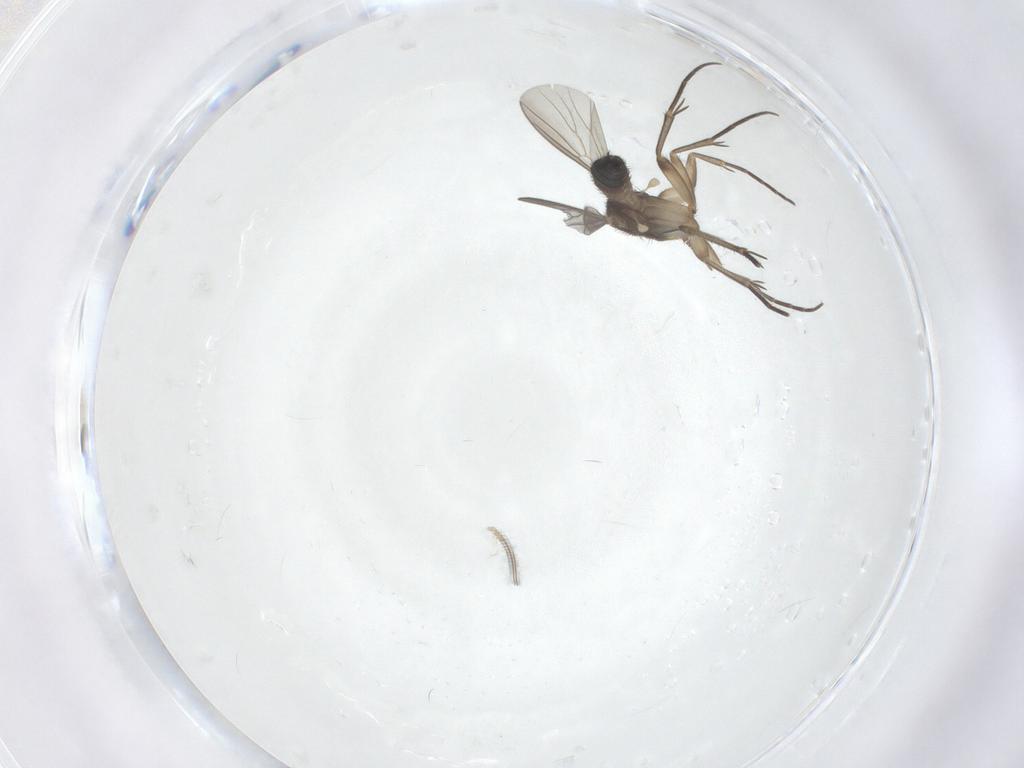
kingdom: Animalia
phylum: Arthropoda
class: Insecta
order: Diptera
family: Mycetophilidae
